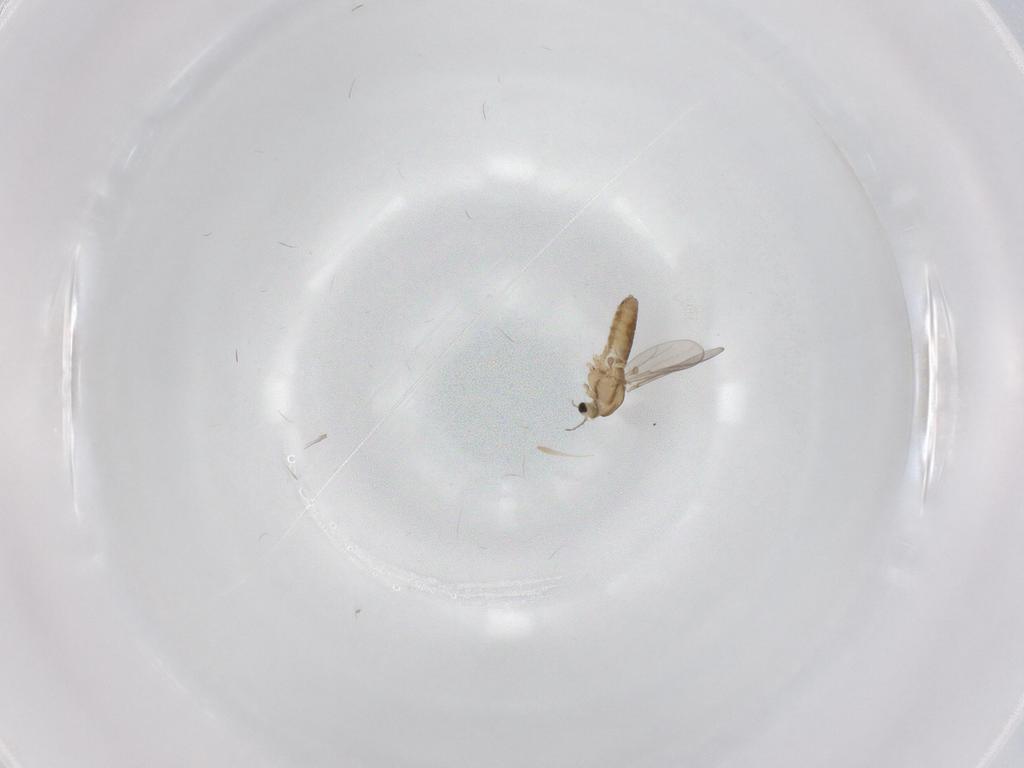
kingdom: Animalia
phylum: Arthropoda
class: Insecta
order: Diptera
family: Chironomidae
